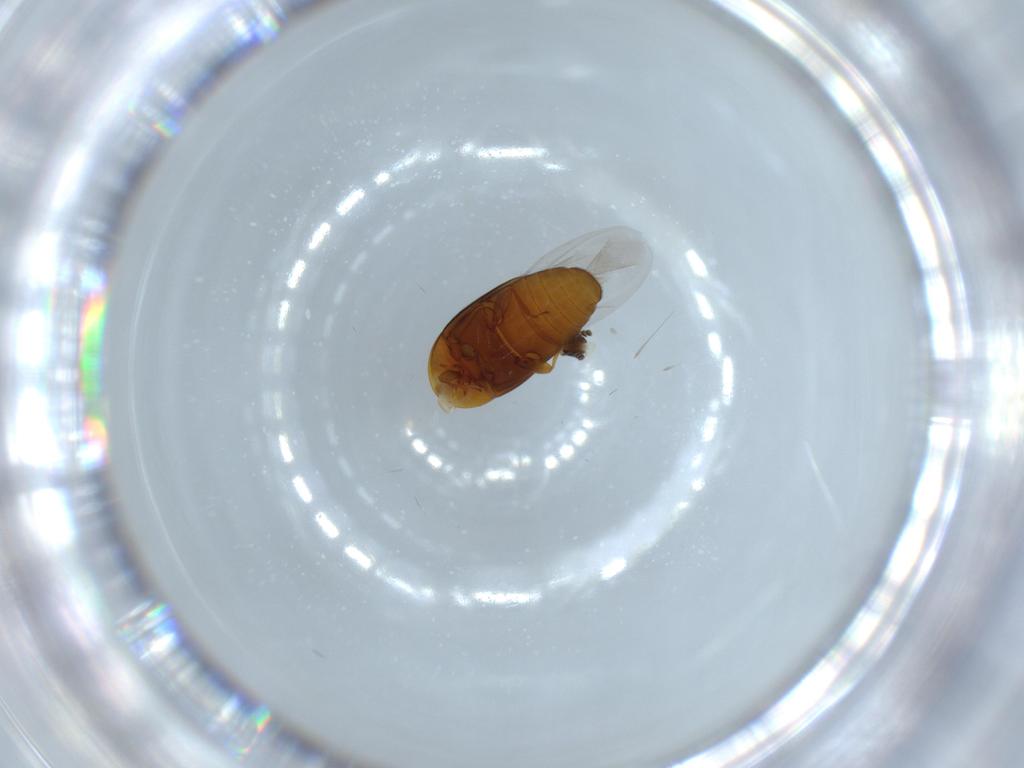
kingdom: Animalia
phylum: Arthropoda
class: Insecta
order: Coleoptera
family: Corylophidae
